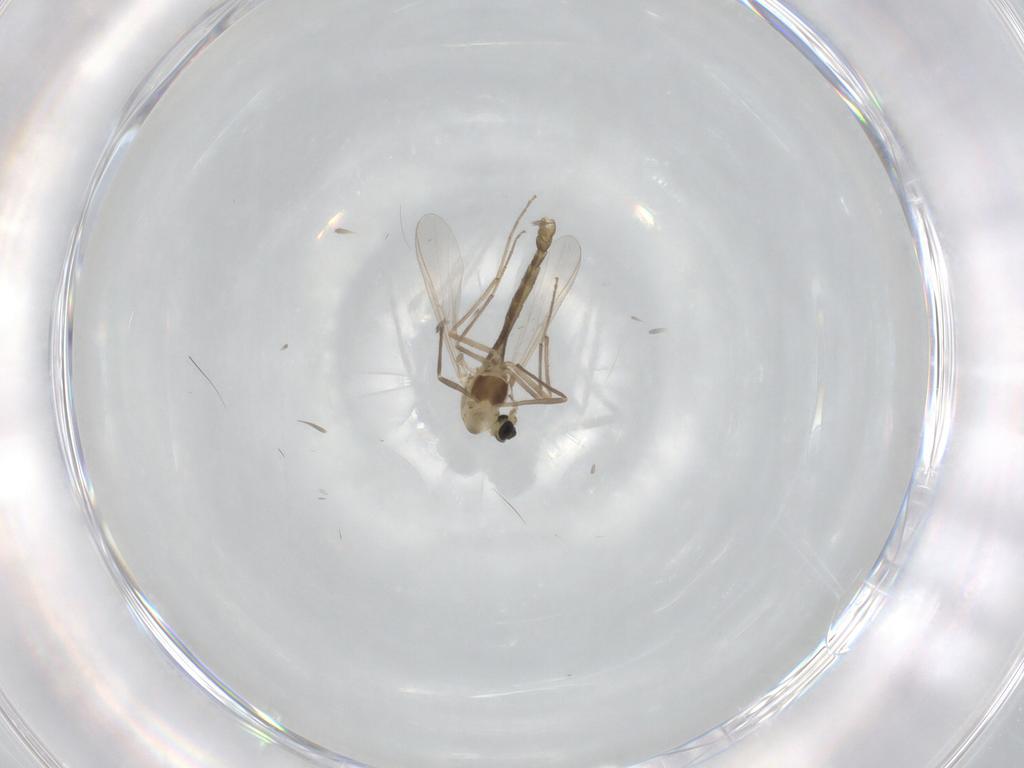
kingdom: Animalia
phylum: Arthropoda
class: Insecta
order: Diptera
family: Chironomidae
